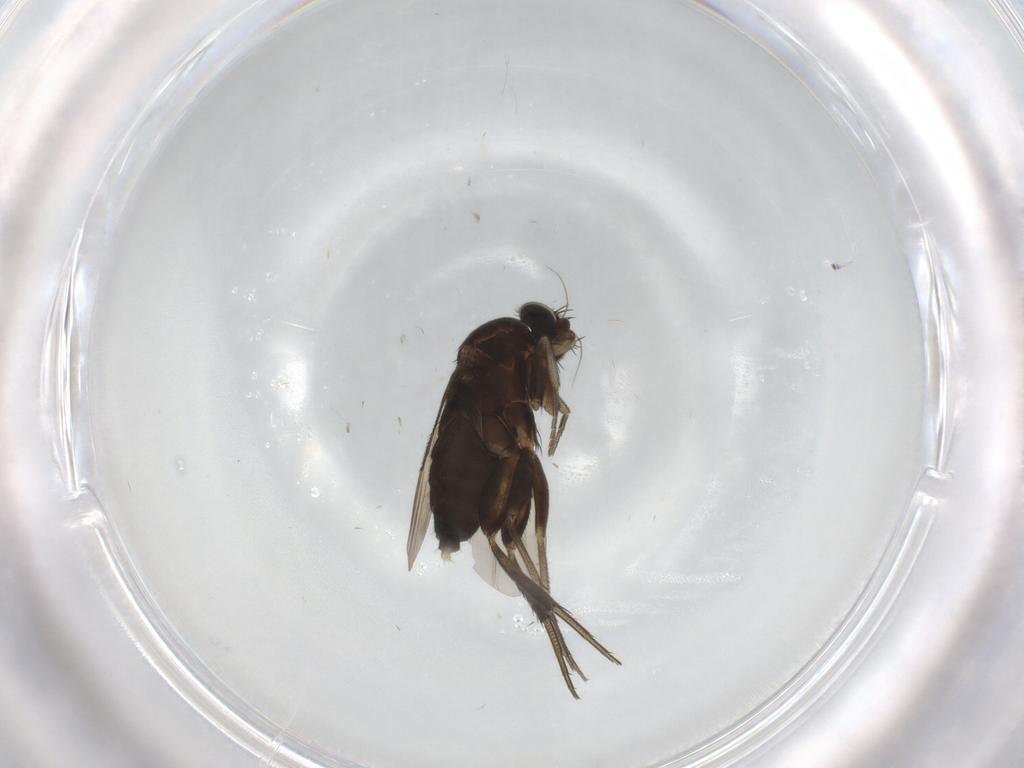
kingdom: Animalia
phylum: Arthropoda
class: Insecta
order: Diptera
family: Phoridae
